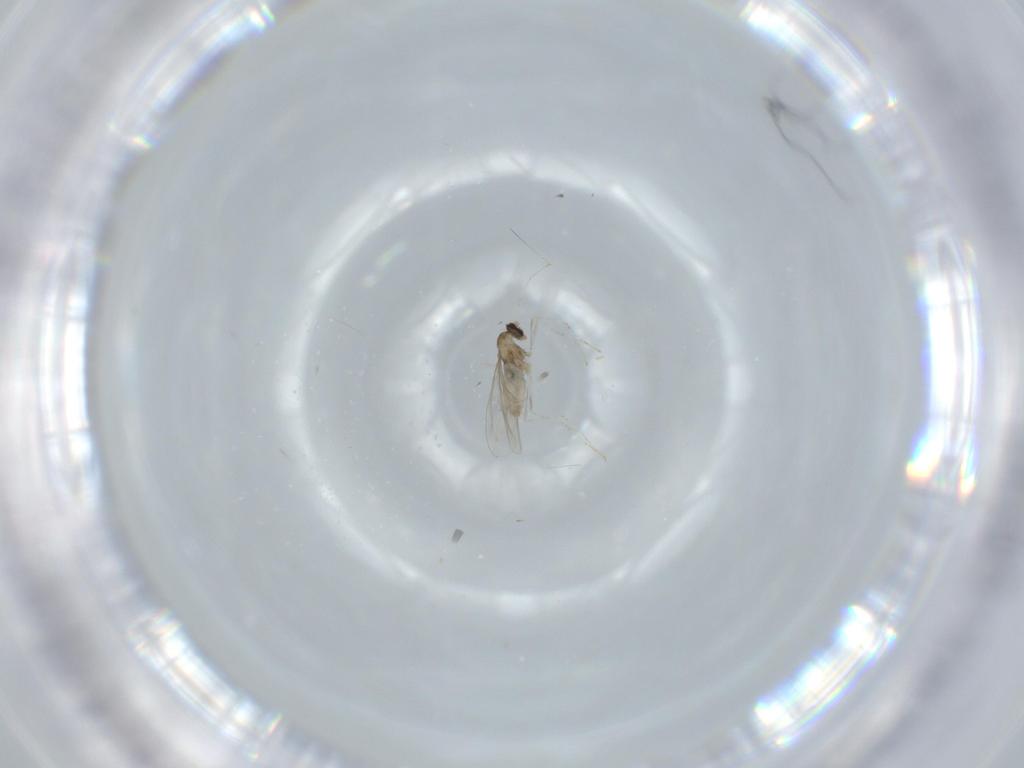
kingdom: Animalia
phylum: Arthropoda
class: Insecta
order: Diptera
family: Cecidomyiidae
